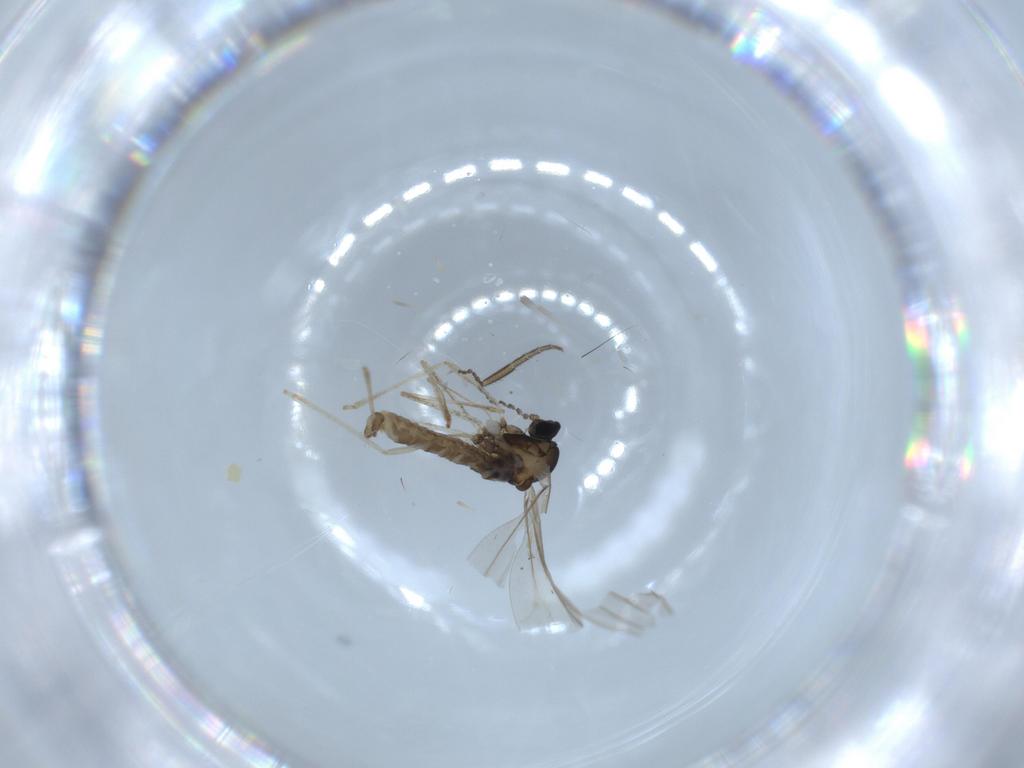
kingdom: Animalia
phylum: Arthropoda
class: Insecta
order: Diptera
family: Cecidomyiidae
